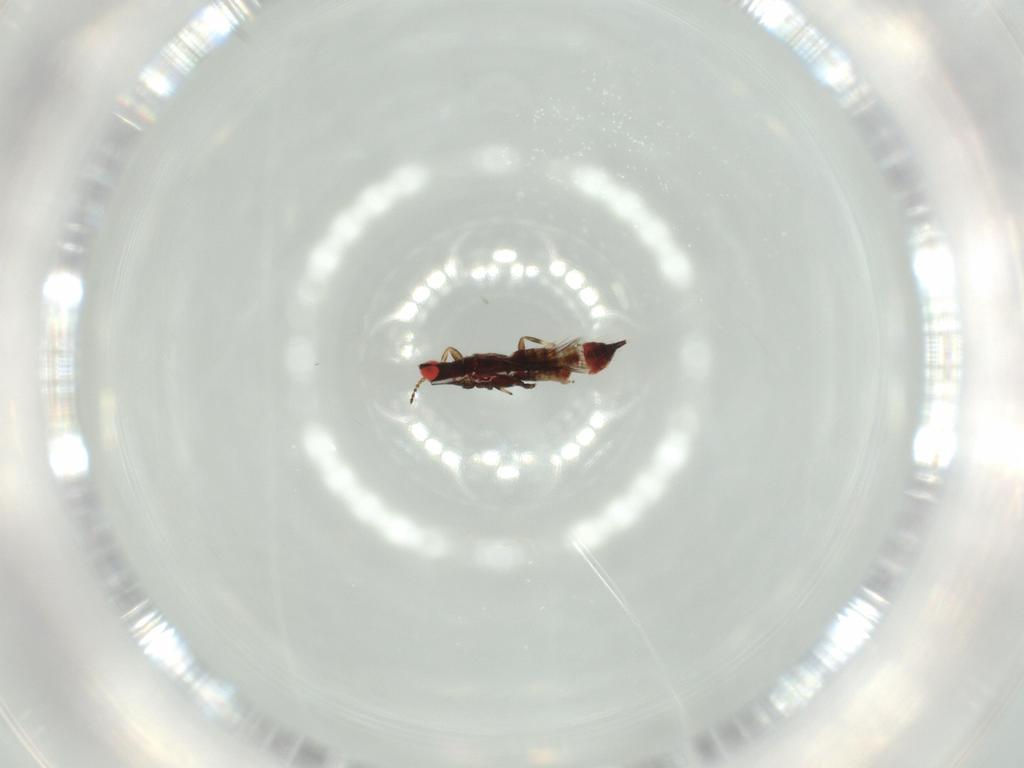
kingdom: Animalia
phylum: Arthropoda
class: Insecta
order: Thysanoptera
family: Phlaeothripidae
